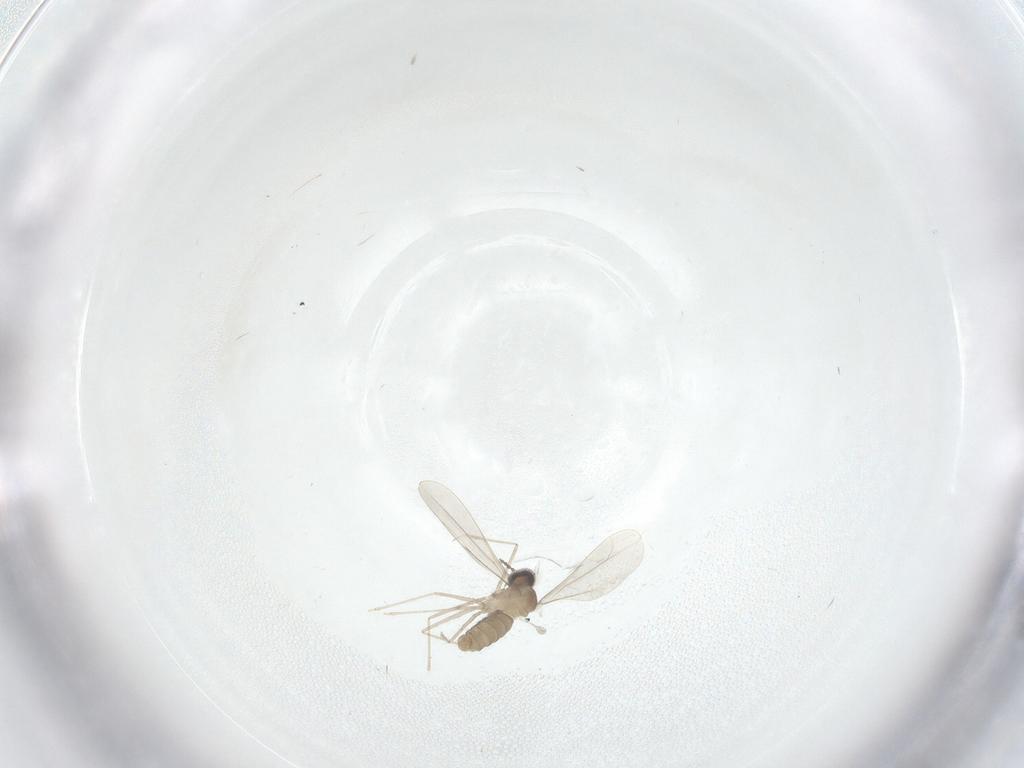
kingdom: Animalia
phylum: Arthropoda
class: Insecta
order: Diptera
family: Cecidomyiidae
